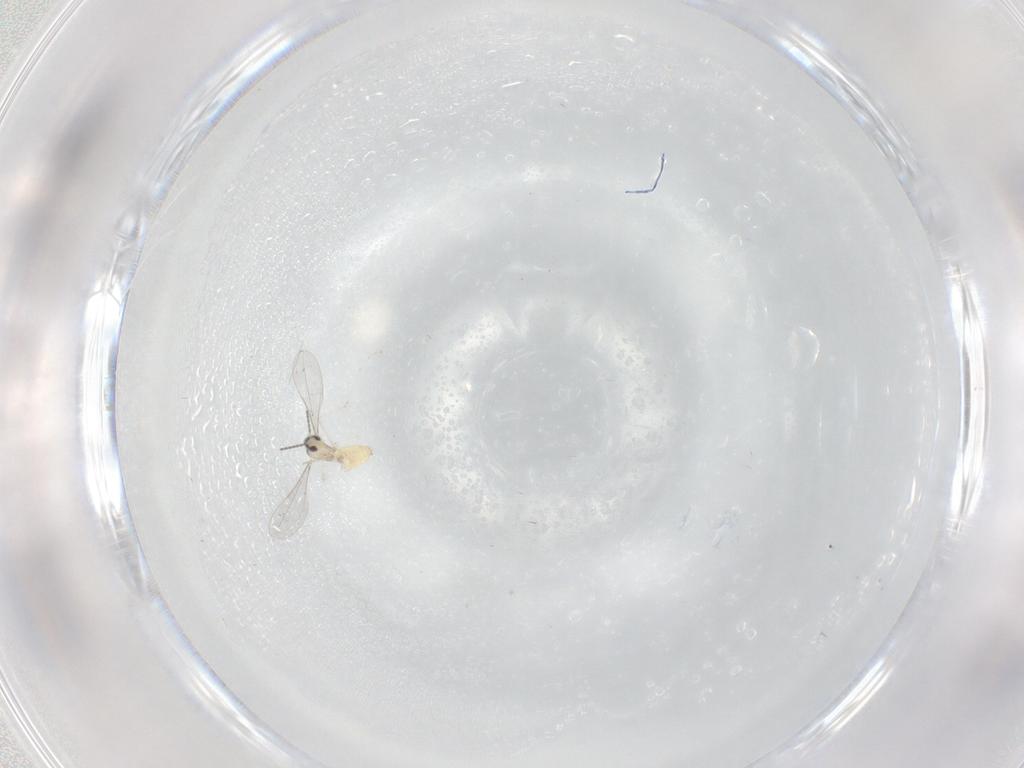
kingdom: Animalia
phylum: Arthropoda
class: Insecta
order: Diptera
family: Cecidomyiidae
